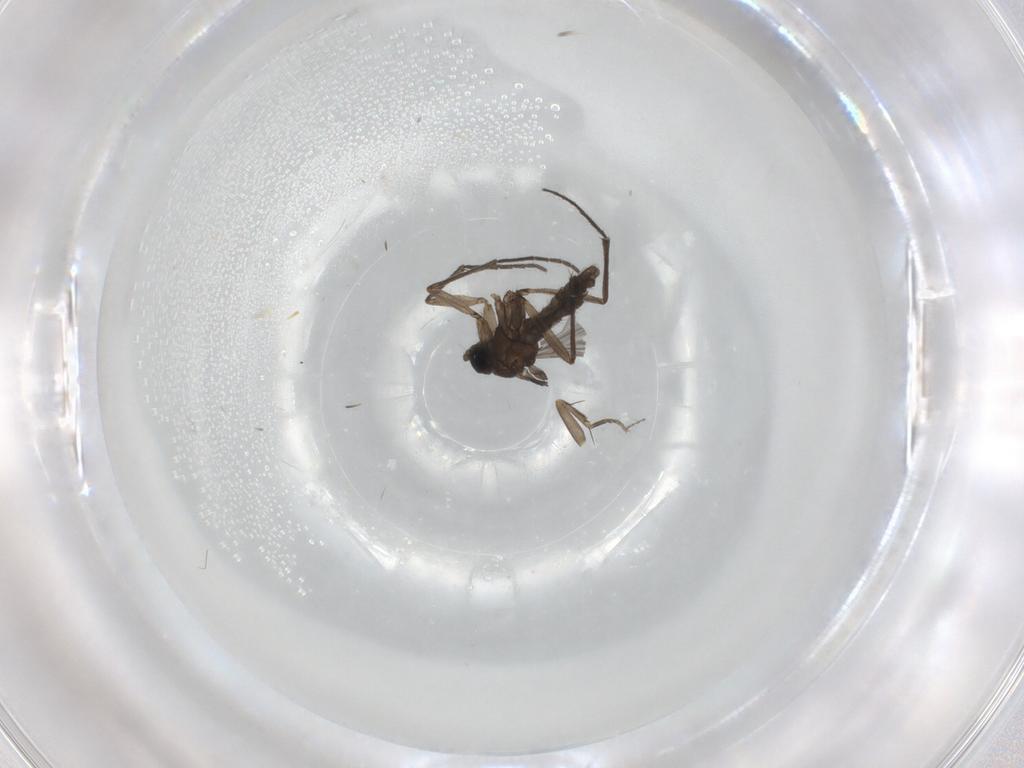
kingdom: Animalia
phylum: Arthropoda
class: Insecta
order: Diptera
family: Sciaridae
